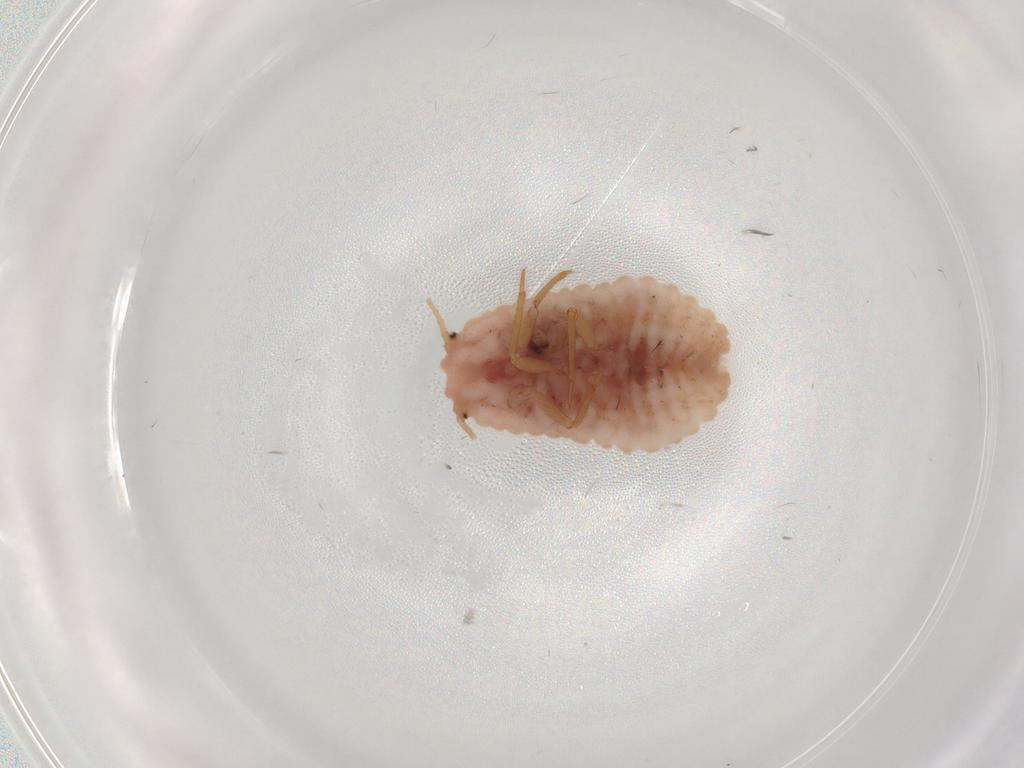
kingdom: Animalia
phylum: Arthropoda
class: Insecta
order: Hemiptera
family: Coccoidea_incertae_sedis
